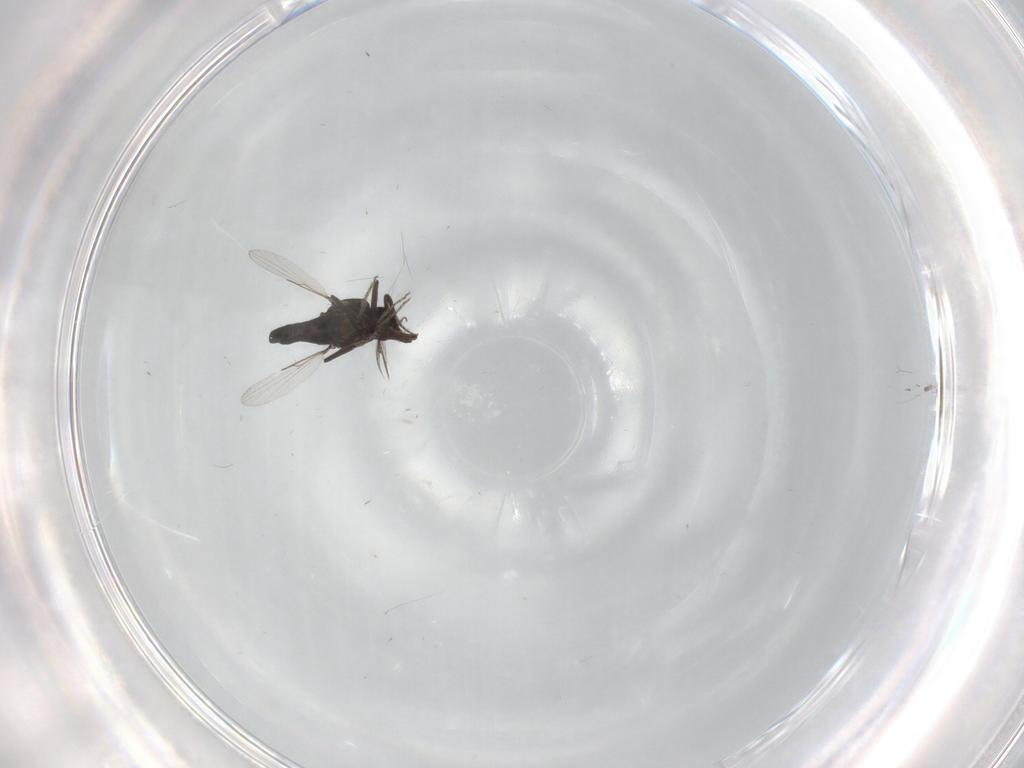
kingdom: Animalia
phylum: Arthropoda
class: Insecta
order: Diptera
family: Ceratopogonidae
